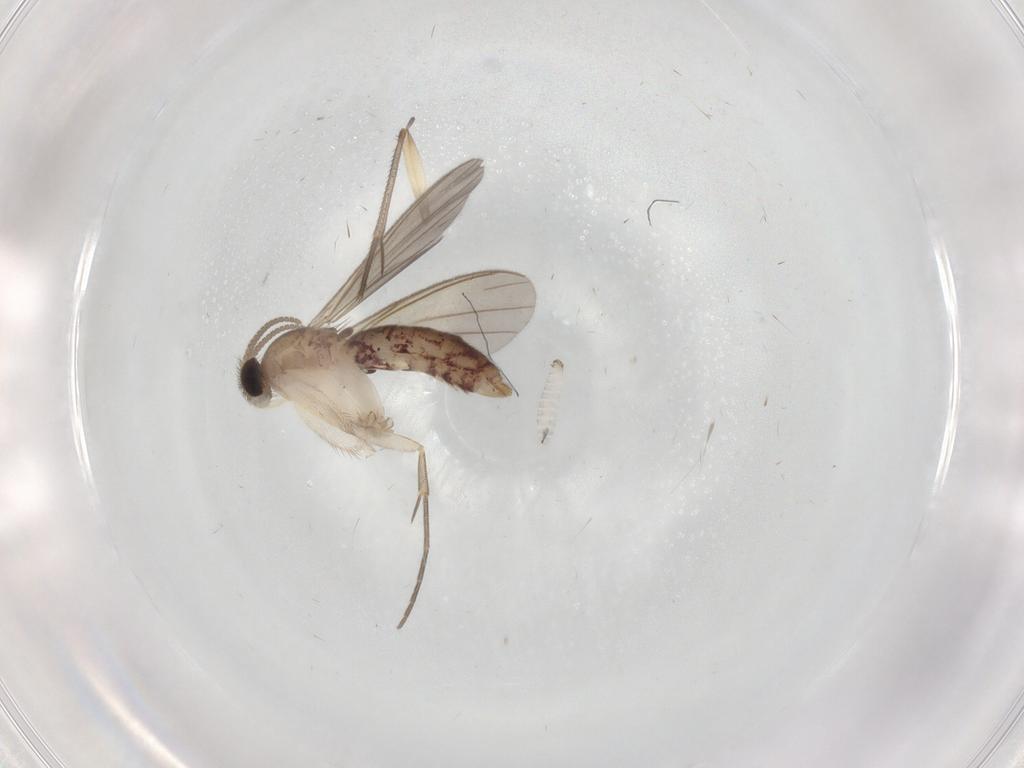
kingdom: Animalia
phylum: Arthropoda
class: Insecta
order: Diptera
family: Mycetophilidae
